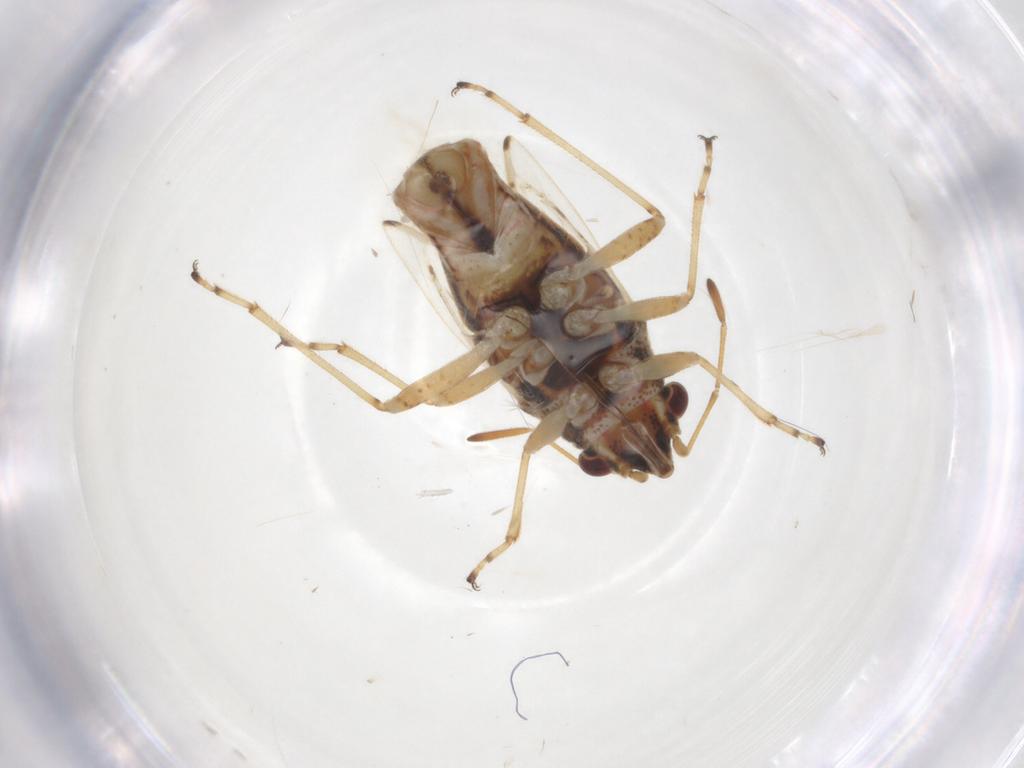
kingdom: Animalia
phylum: Arthropoda
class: Insecta
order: Hemiptera
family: Lygaeidae
